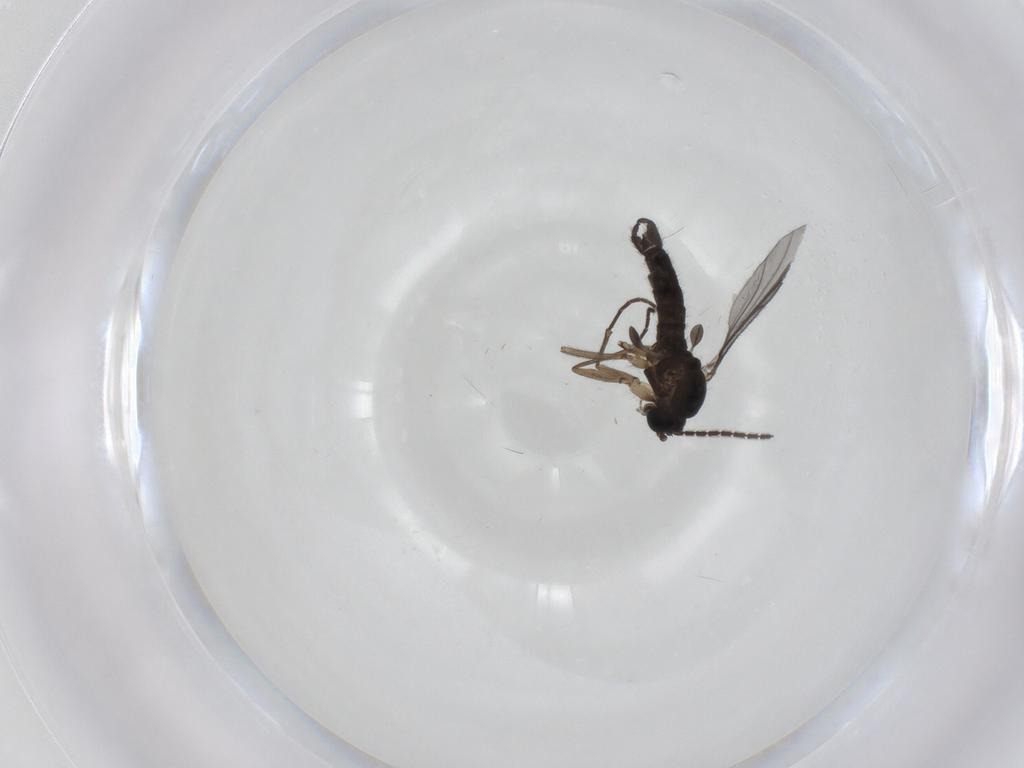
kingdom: Animalia
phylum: Arthropoda
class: Insecta
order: Diptera
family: Sciaridae
